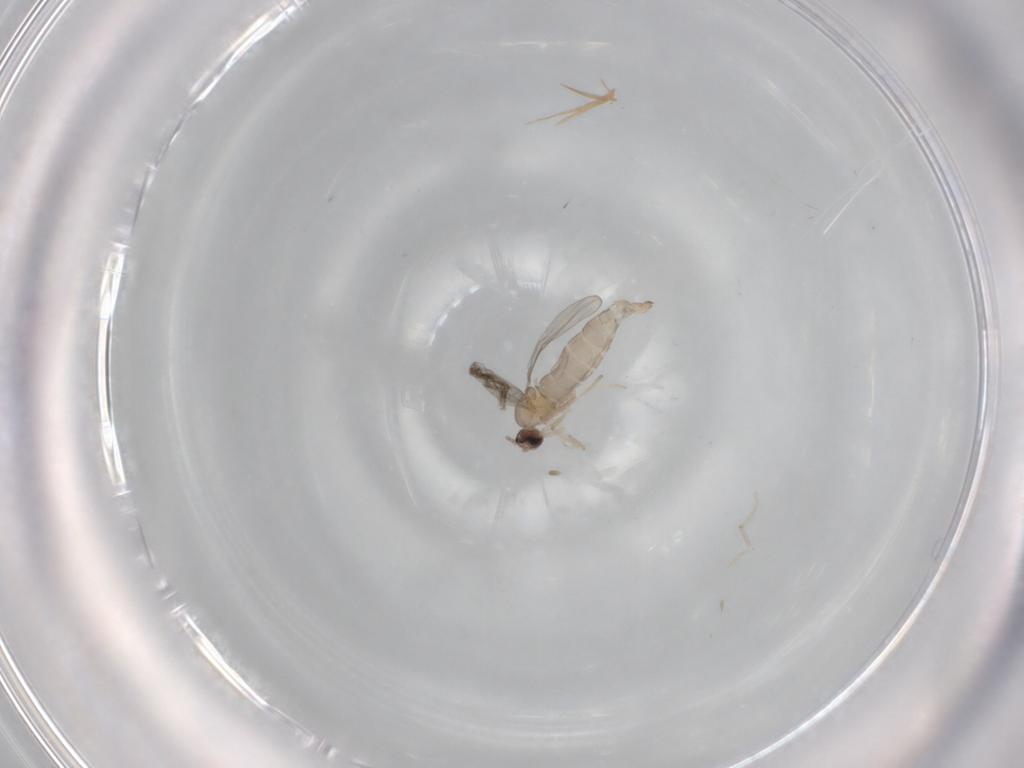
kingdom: Animalia
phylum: Arthropoda
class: Insecta
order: Diptera
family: Cecidomyiidae
